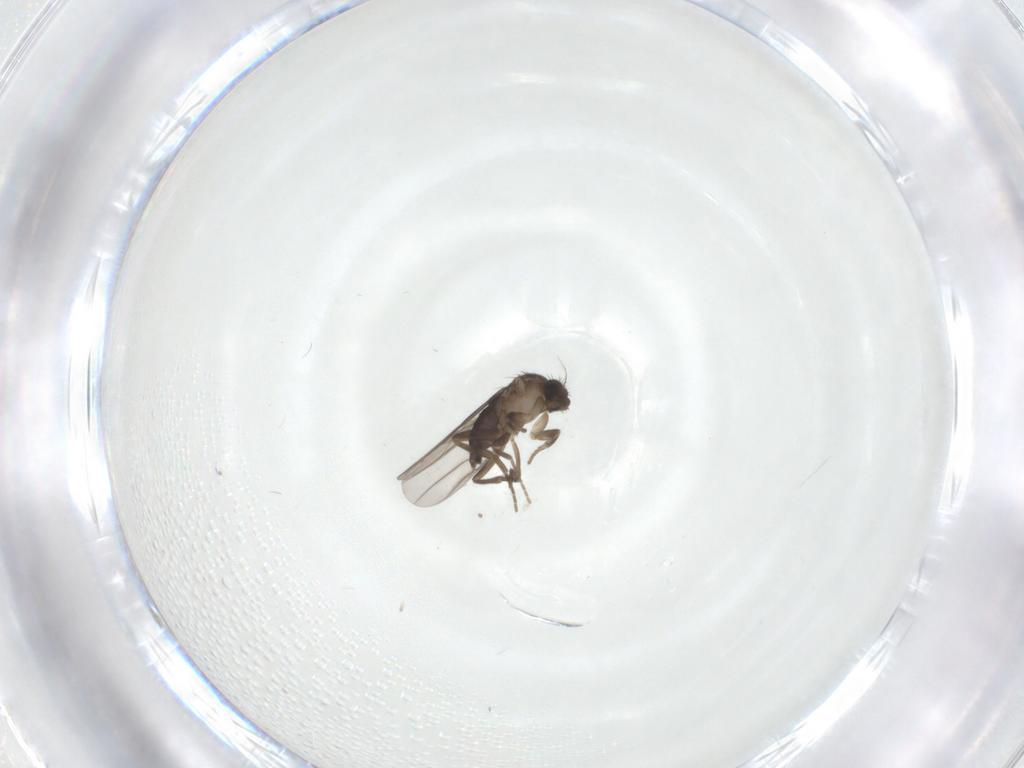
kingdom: Animalia
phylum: Arthropoda
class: Insecta
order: Diptera
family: Phoridae
